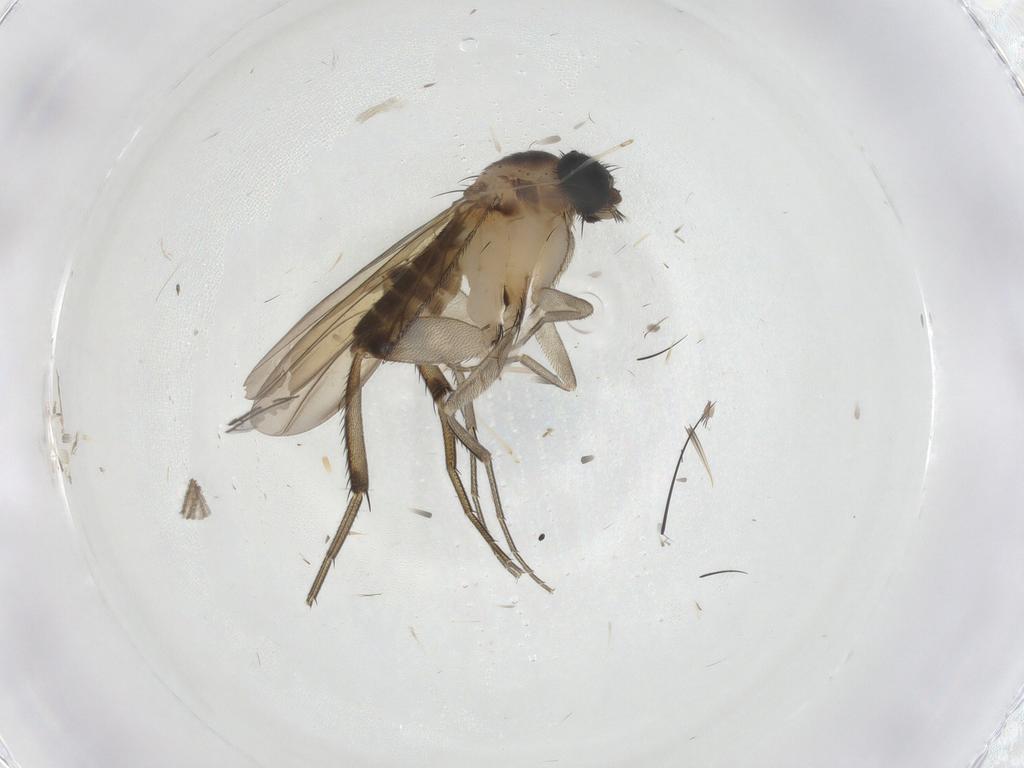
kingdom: Animalia
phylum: Arthropoda
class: Insecta
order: Diptera
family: Phoridae
